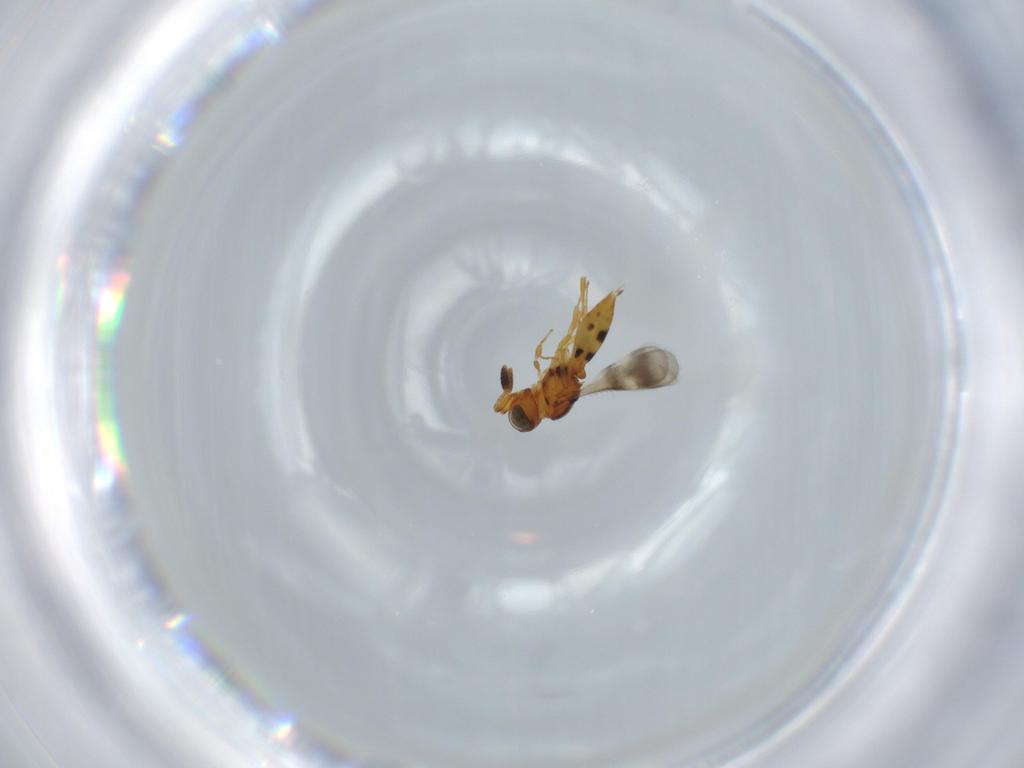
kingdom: Animalia
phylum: Arthropoda
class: Insecta
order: Hymenoptera
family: Scelionidae
